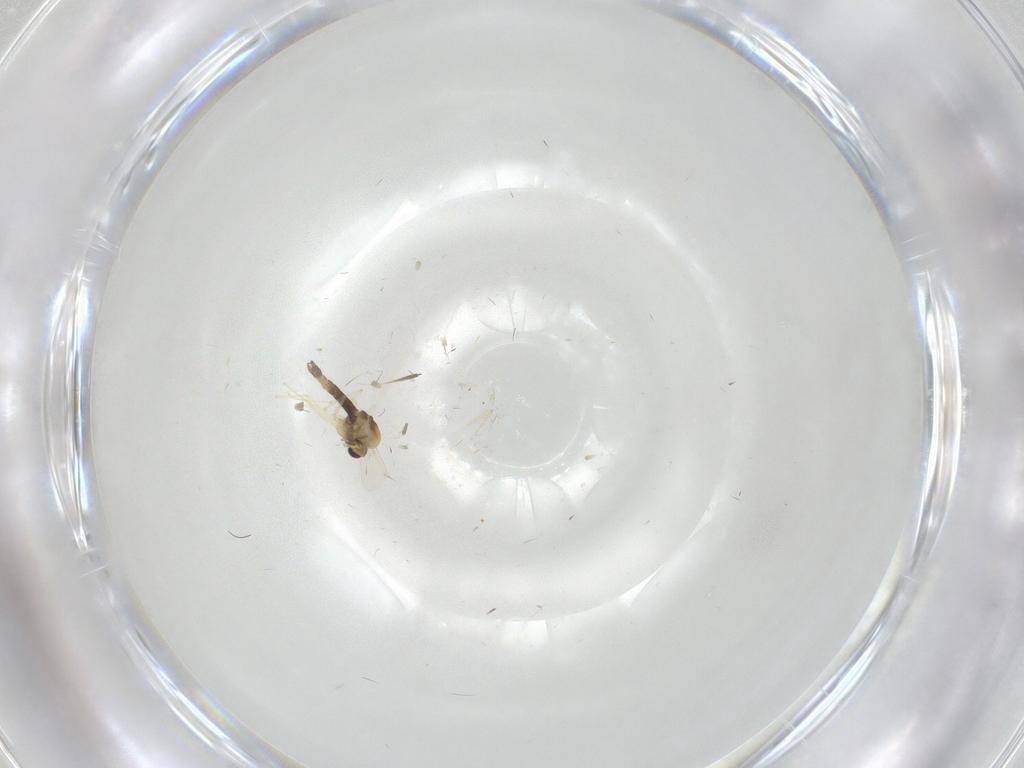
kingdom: Animalia
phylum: Arthropoda
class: Insecta
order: Diptera
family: Chironomidae
